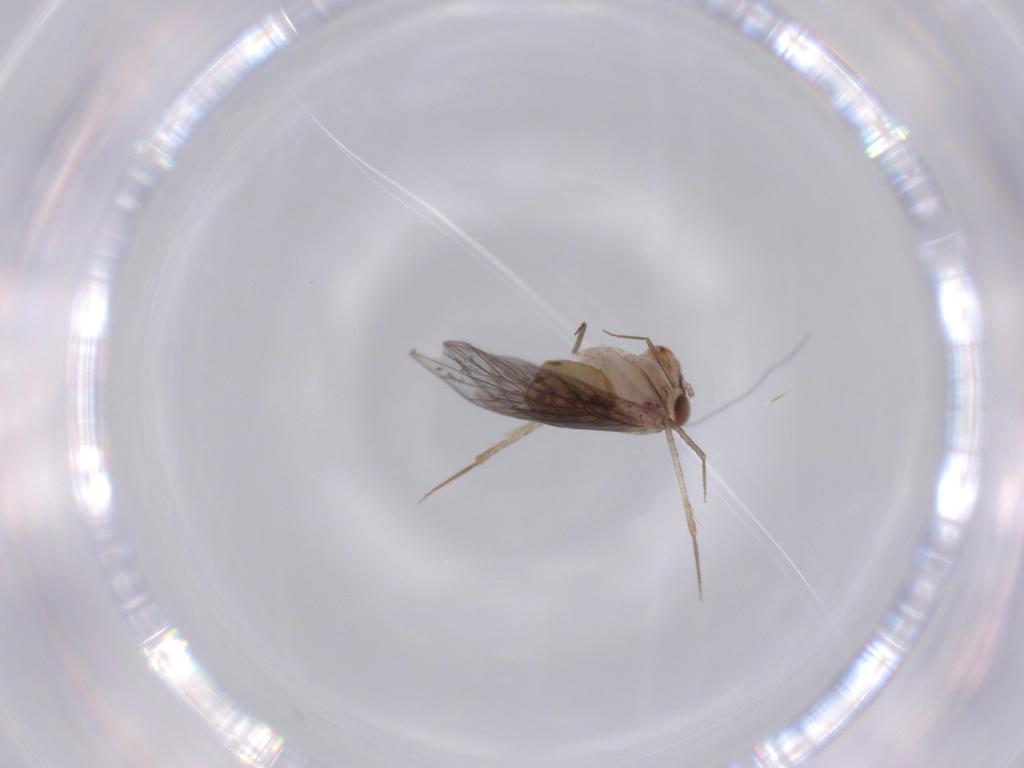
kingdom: Animalia
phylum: Arthropoda
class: Insecta
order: Psocodea
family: Lepidopsocidae
